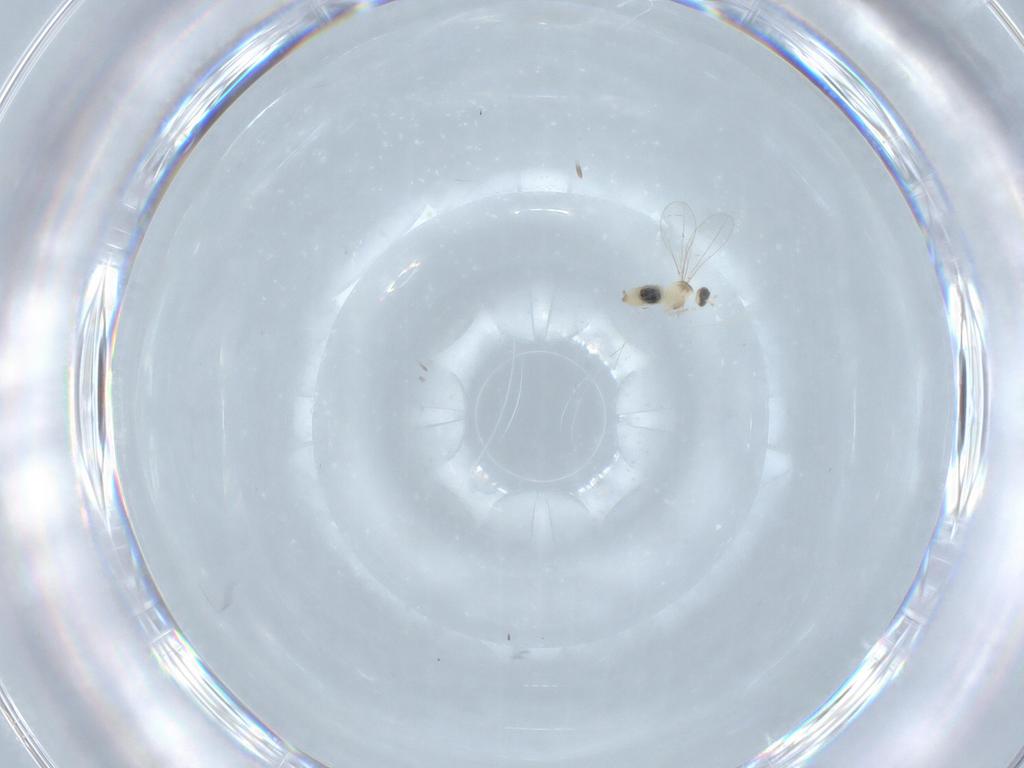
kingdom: Animalia
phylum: Arthropoda
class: Insecta
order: Diptera
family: Cecidomyiidae
